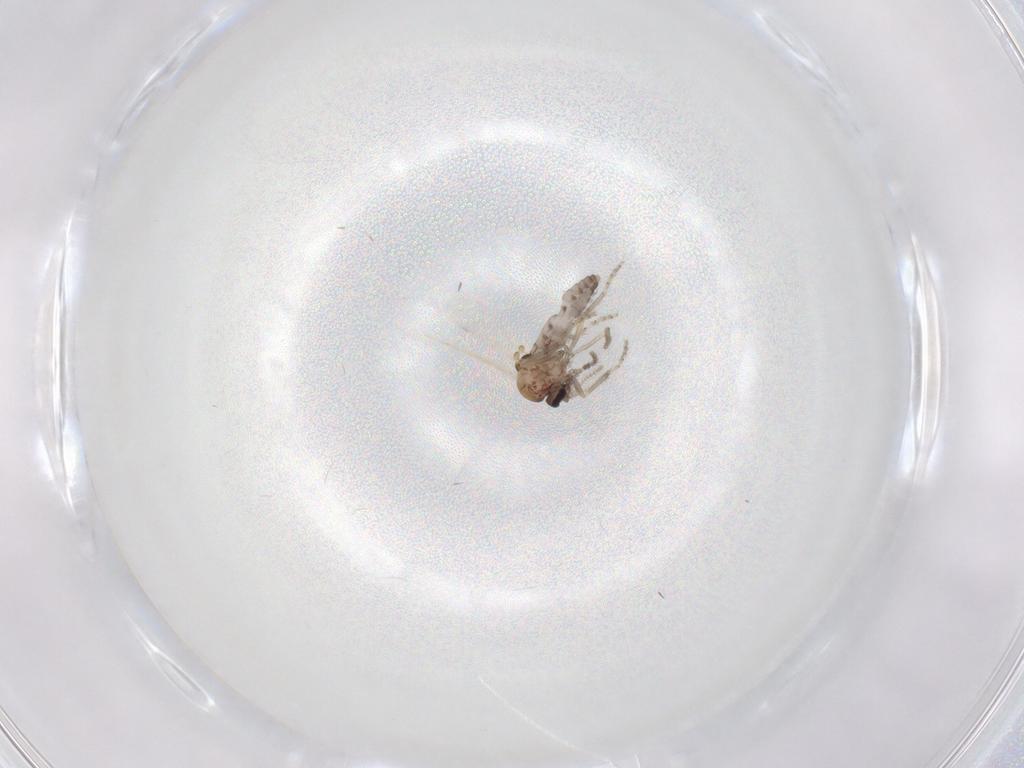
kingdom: Animalia
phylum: Arthropoda
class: Insecta
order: Diptera
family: Ceratopogonidae
